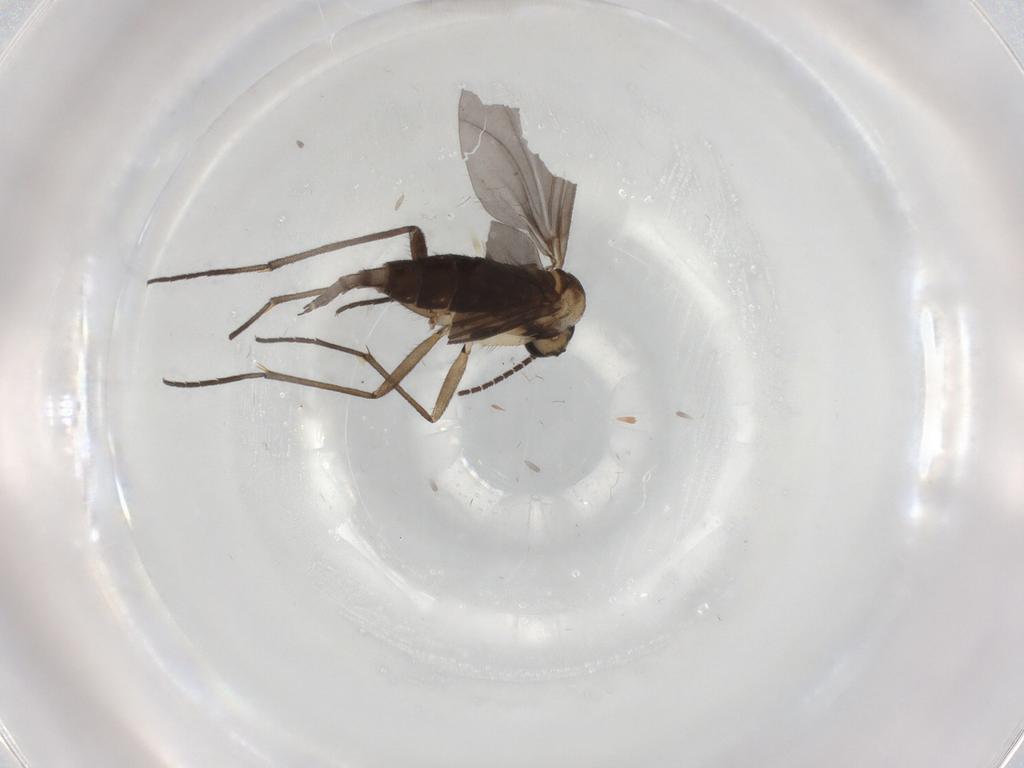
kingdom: Animalia
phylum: Arthropoda
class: Insecta
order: Diptera
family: Sciaridae
